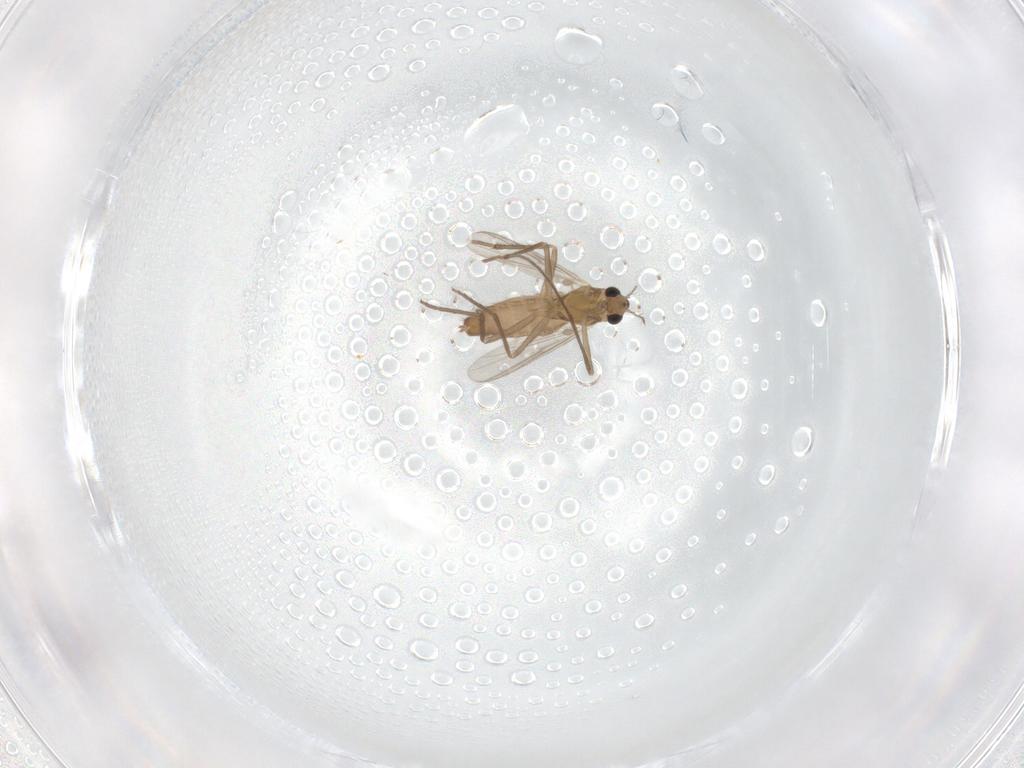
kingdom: Animalia
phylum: Arthropoda
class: Insecta
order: Diptera
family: Chironomidae
